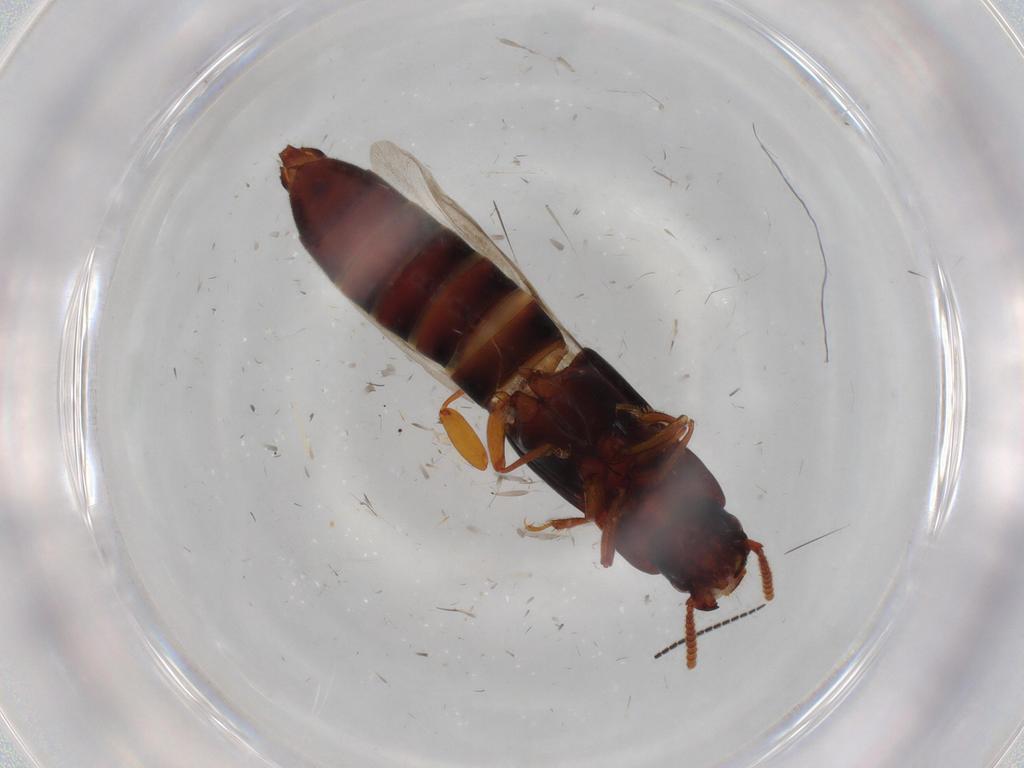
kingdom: Animalia
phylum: Arthropoda
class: Insecta
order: Coleoptera
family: Staphylinidae
